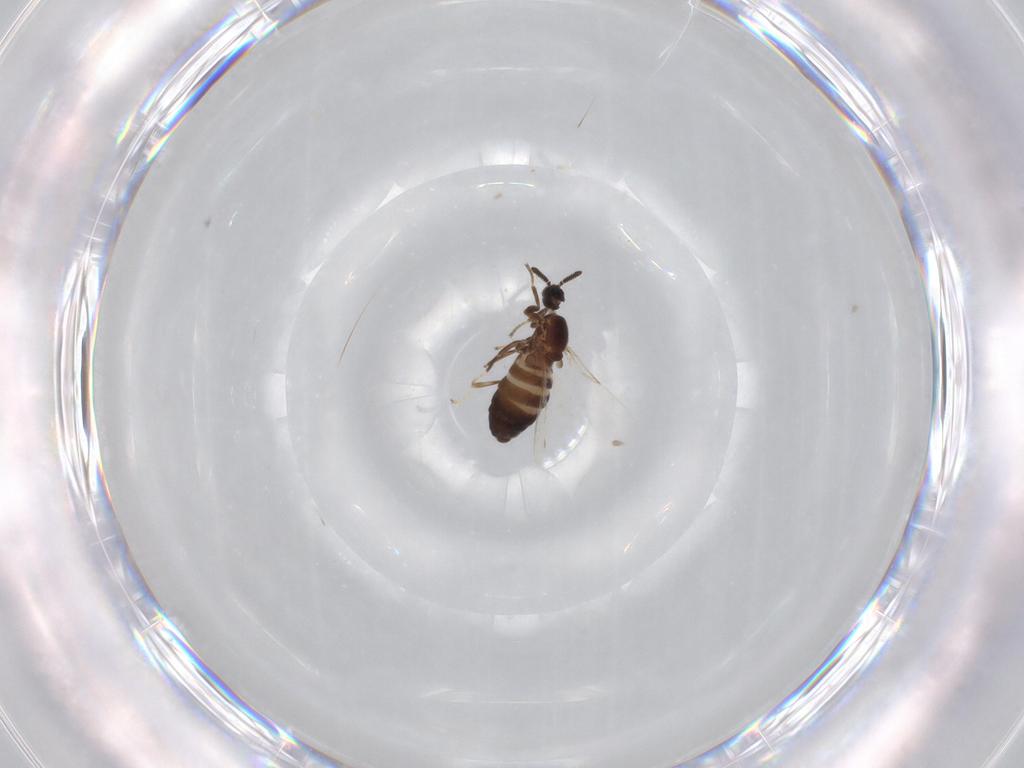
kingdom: Animalia
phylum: Arthropoda
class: Insecta
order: Diptera
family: Scatopsidae
